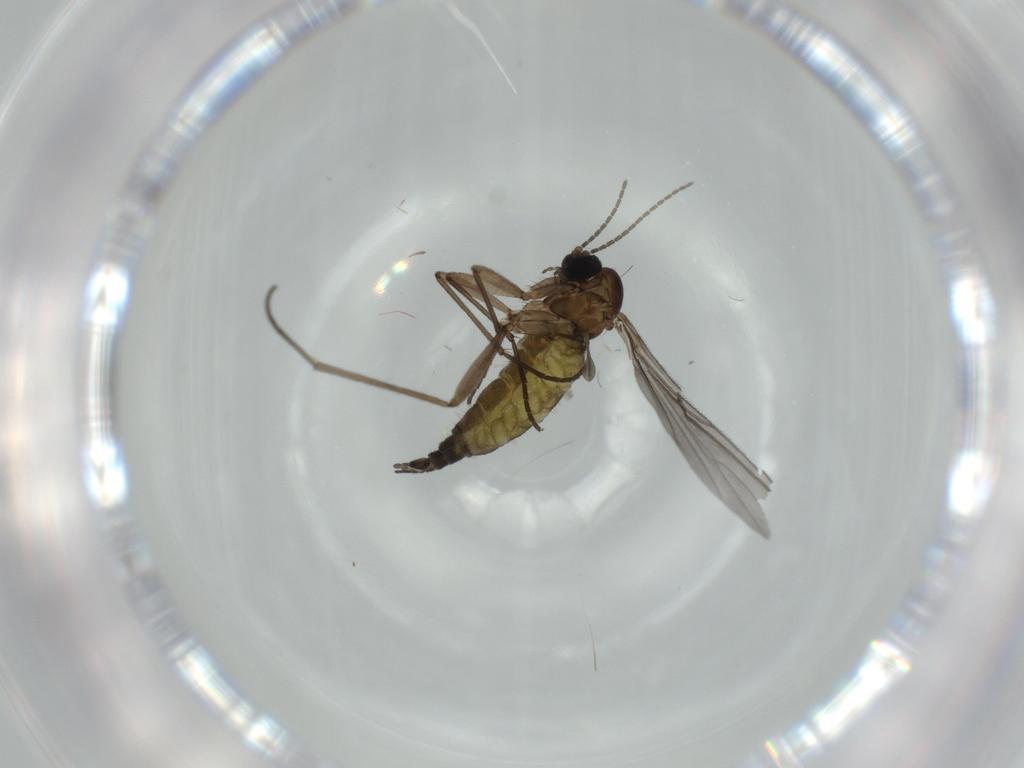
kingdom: Animalia
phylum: Arthropoda
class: Insecta
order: Diptera
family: Sciaridae
